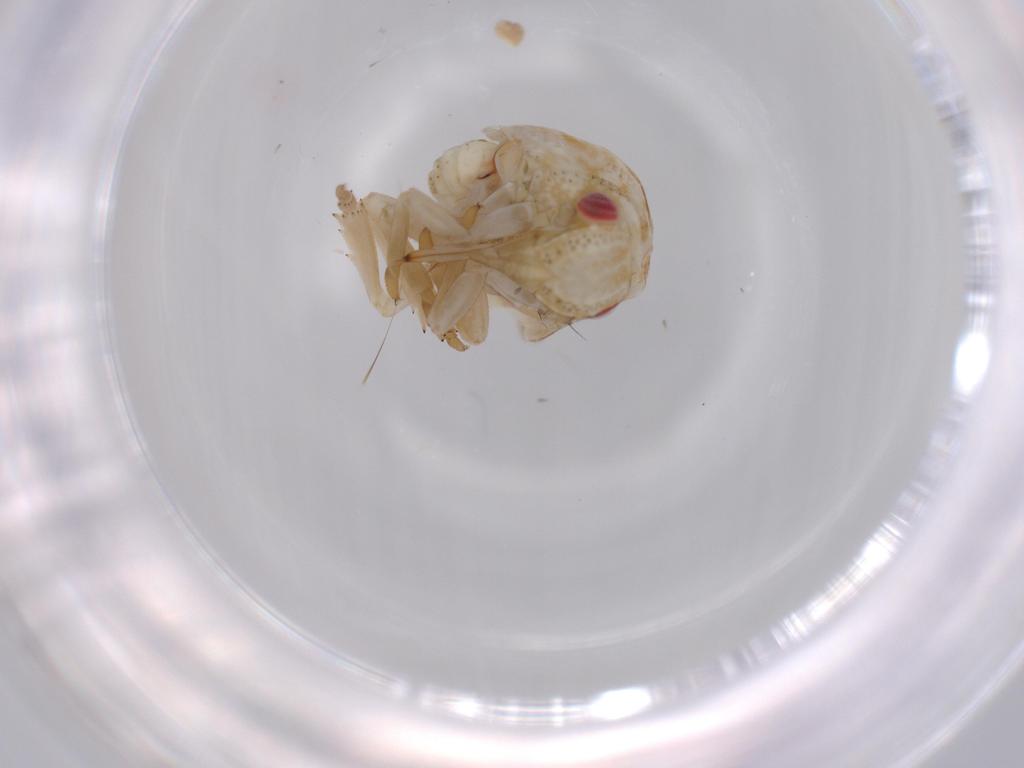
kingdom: Animalia
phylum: Arthropoda
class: Insecta
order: Hemiptera
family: Acanaloniidae
